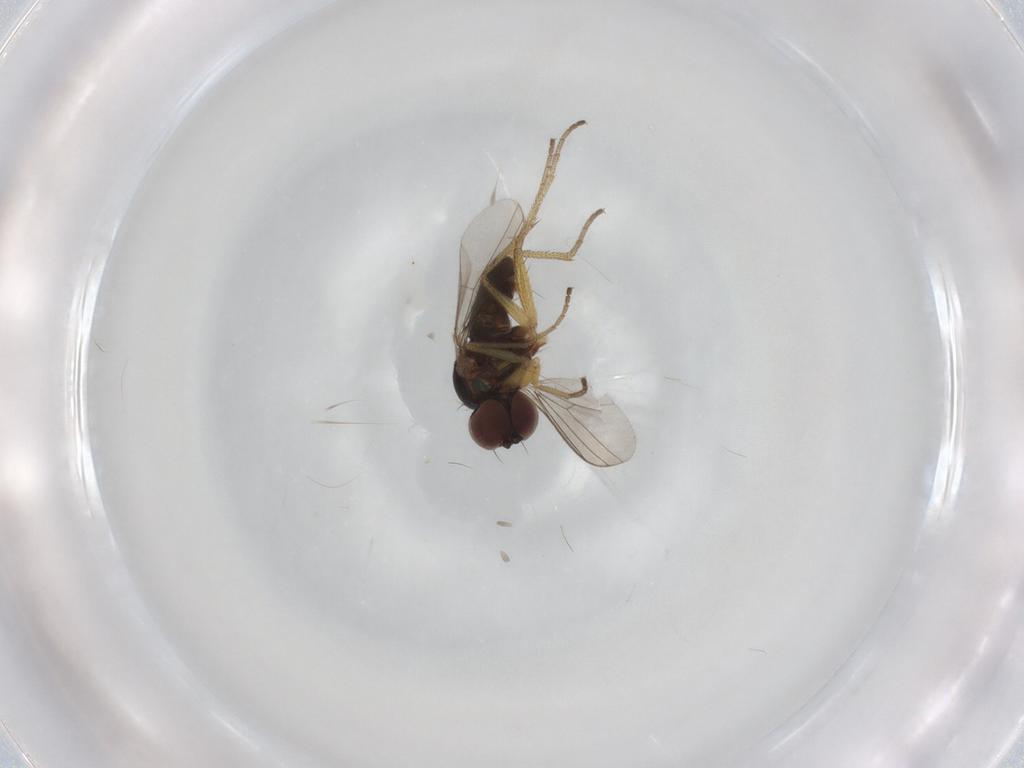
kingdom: Animalia
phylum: Arthropoda
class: Insecta
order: Diptera
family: Dolichopodidae
